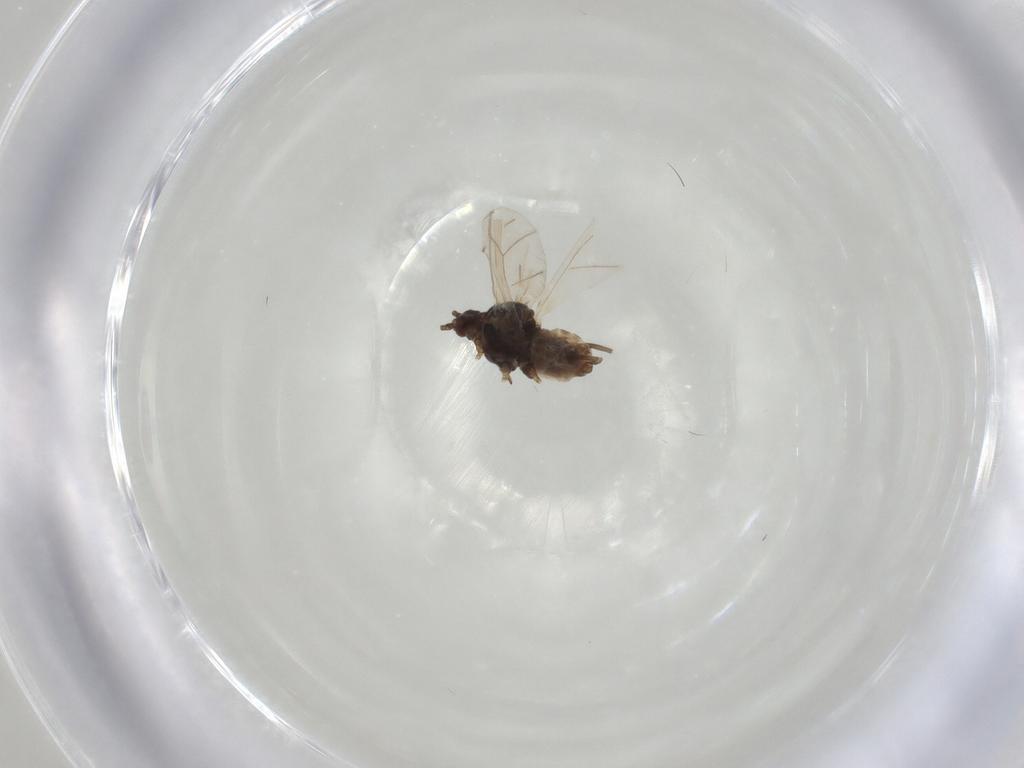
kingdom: Animalia
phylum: Arthropoda
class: Insecta
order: Hemiptera
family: Aphididae
